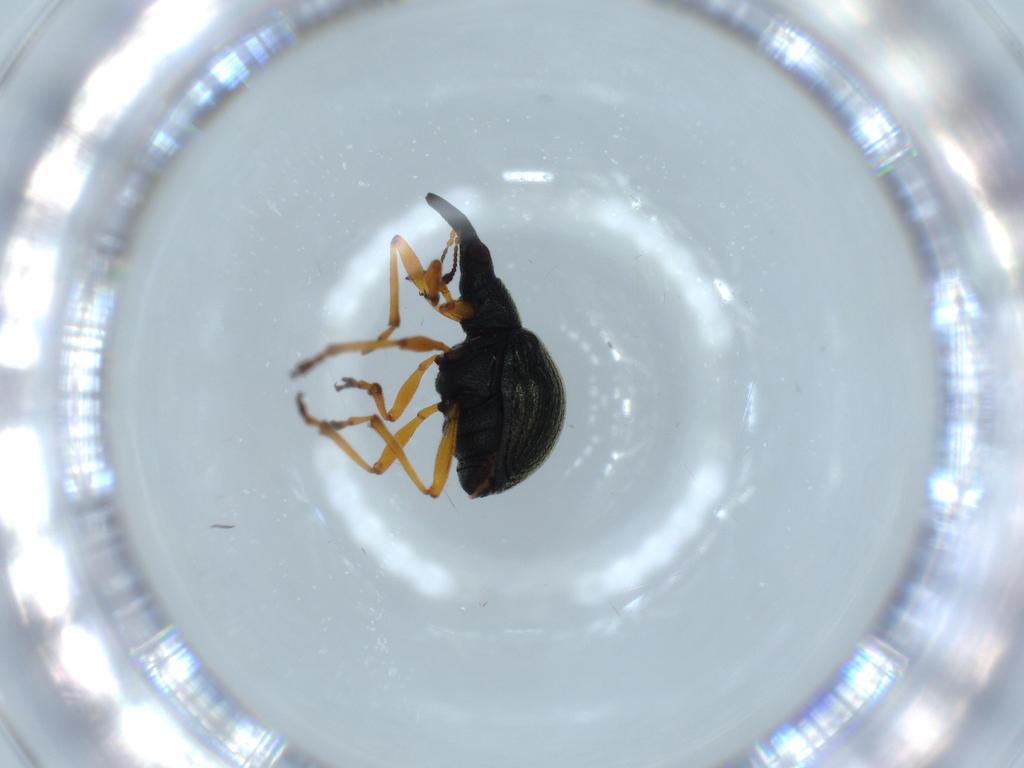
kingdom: Animalia
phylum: Arthropoda
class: Insecta
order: Coleoptera
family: Brentidae
